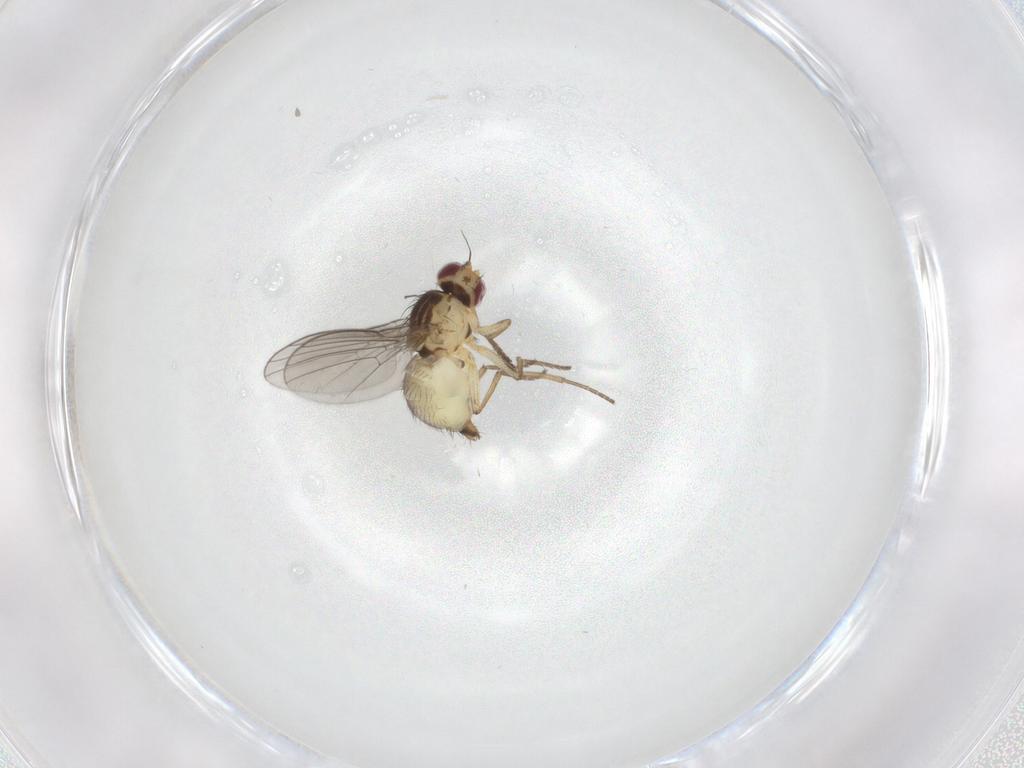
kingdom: Animalia
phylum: Arthropoda
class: Insecta
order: Diptera
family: Agromyzidae
